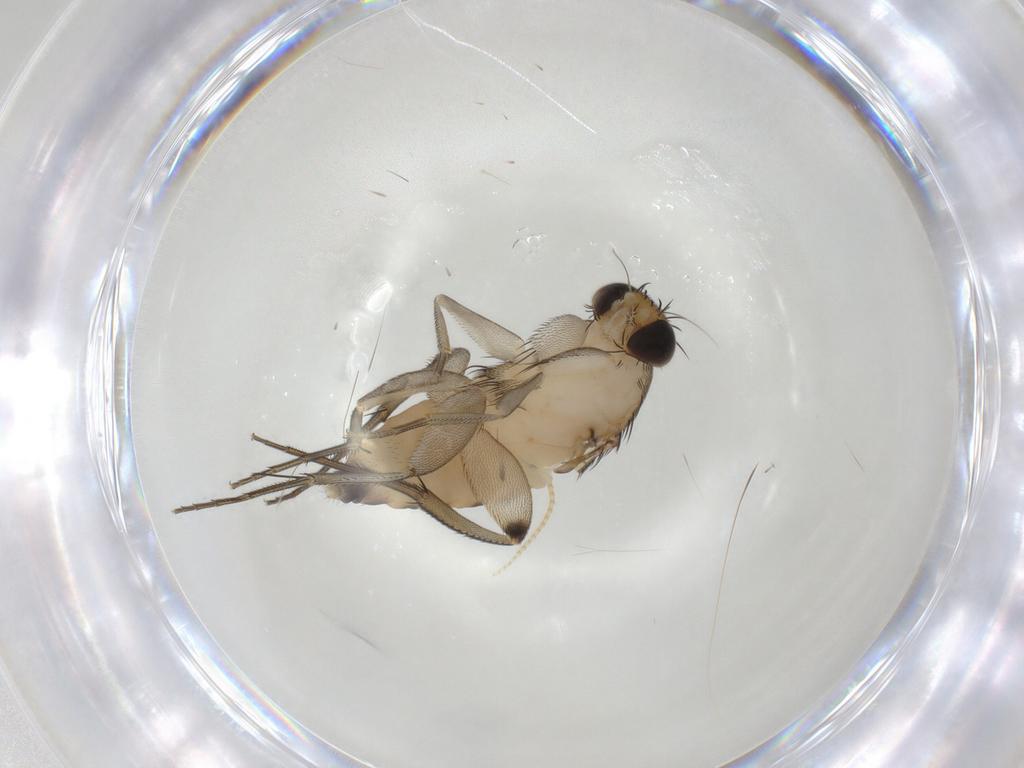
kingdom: Animalia
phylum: Arthropoda
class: Insecta
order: Diptera
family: Phoridae
